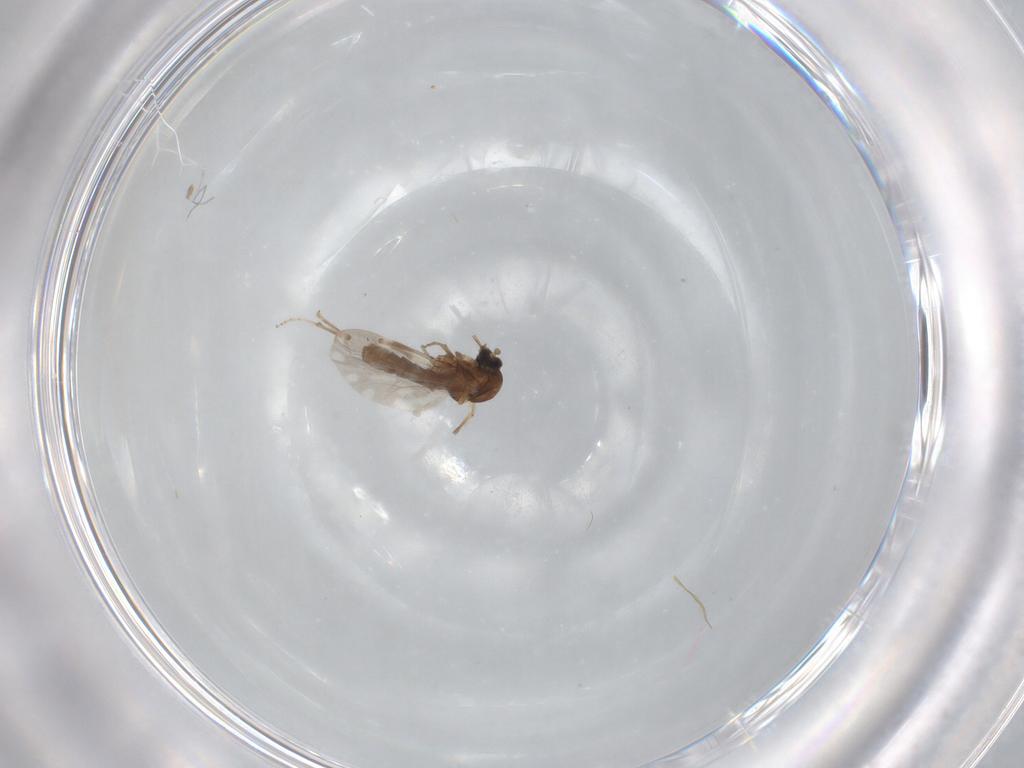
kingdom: Animalia
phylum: Arthropoda
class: Insecta
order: Diptera
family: Ceratopogonidae
